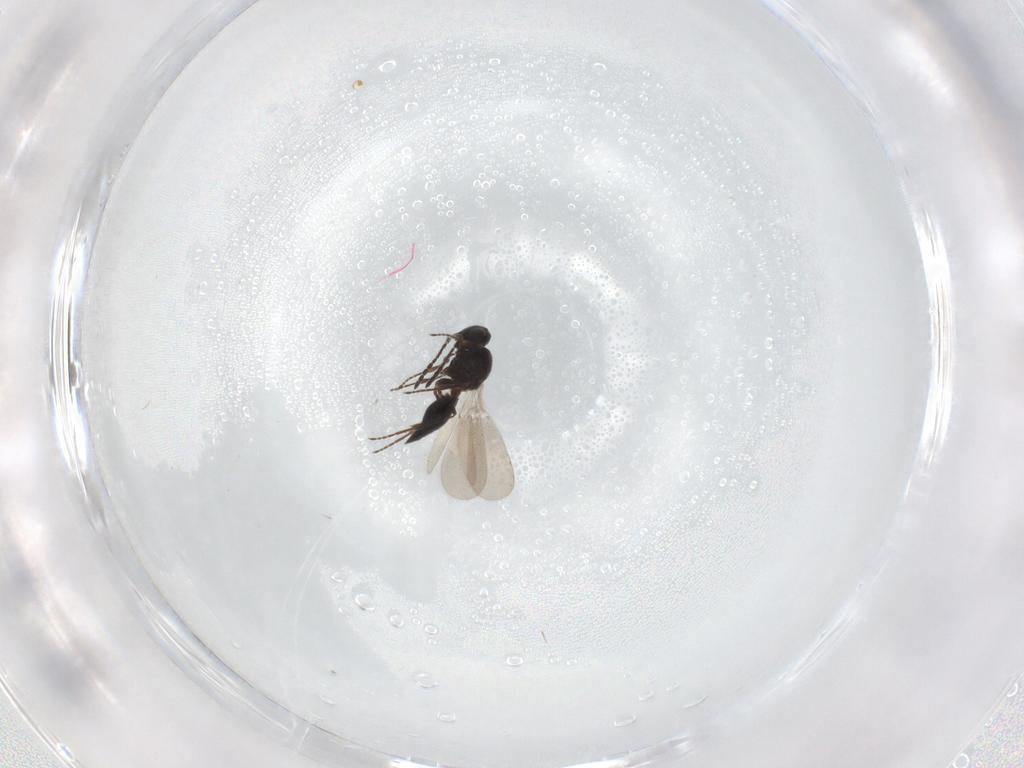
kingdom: Animalia
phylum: Arthropoda
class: Insecta
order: Hymenoptera
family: Platygastridae
